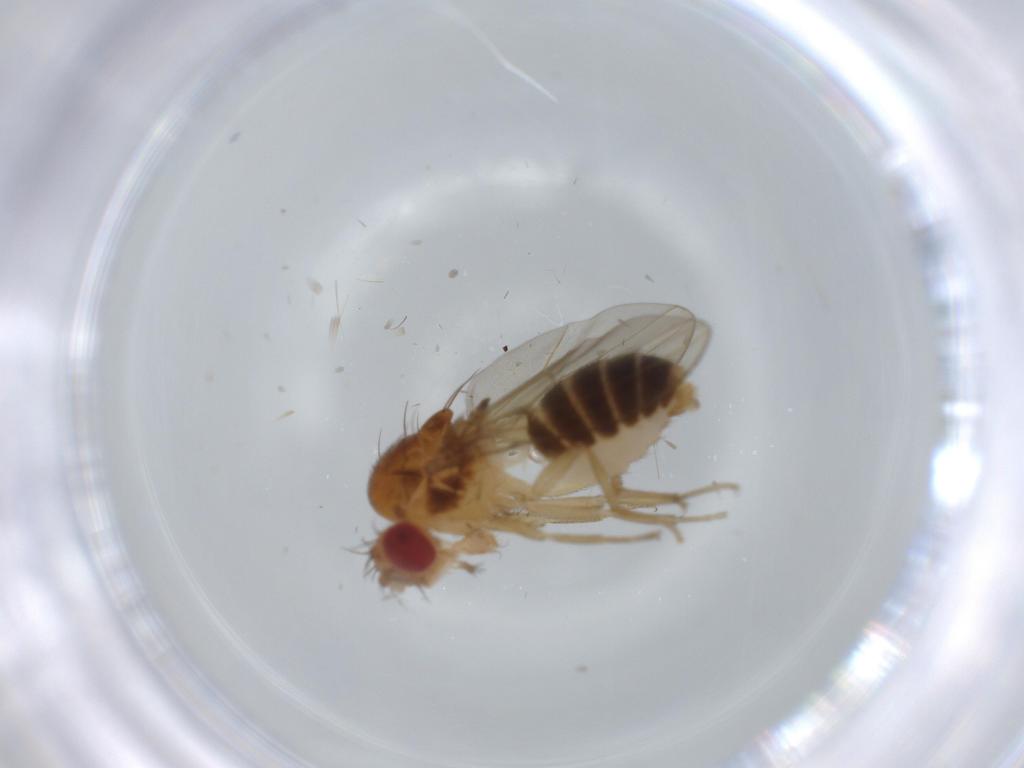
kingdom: Animalia
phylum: Arthropoda
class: Insecta
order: Diptera
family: Drosophilidae
